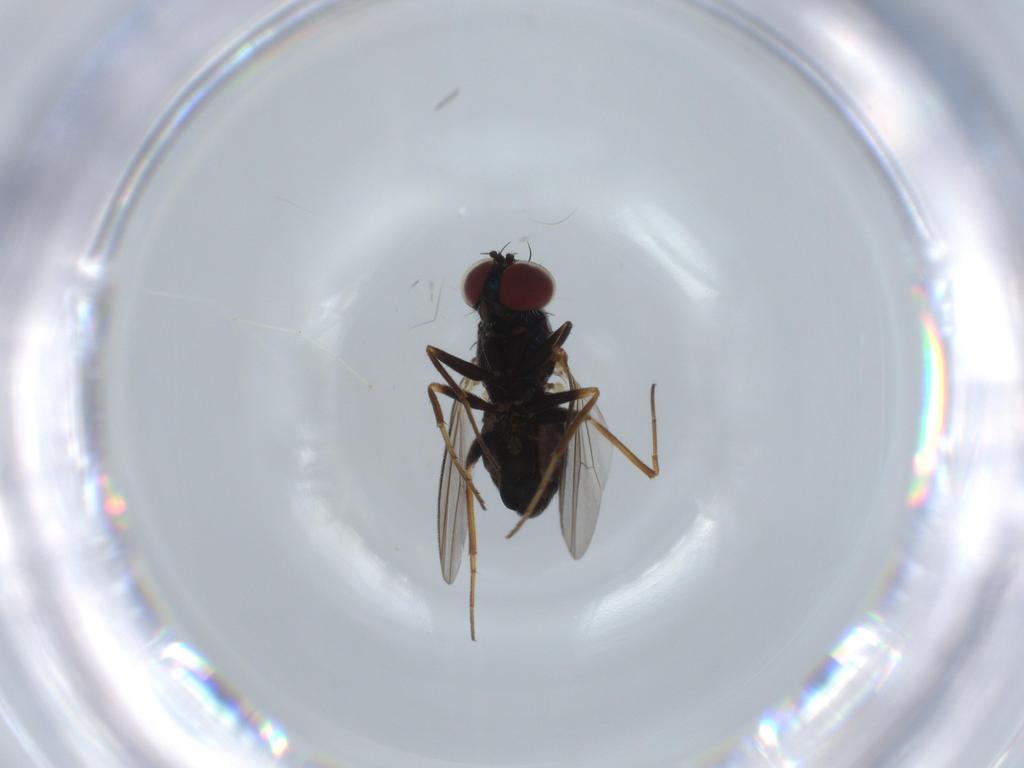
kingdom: Animalia
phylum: Arthropoda
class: Insecta
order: Diptera
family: Dolichopodidae
